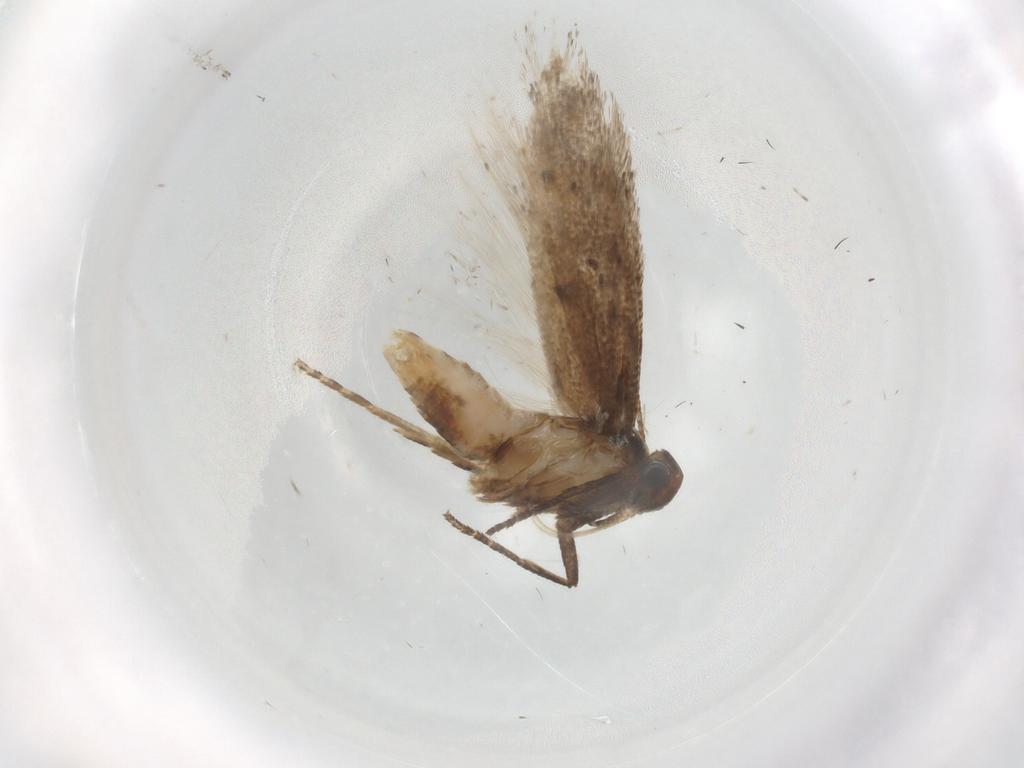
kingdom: Animalia
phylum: Arthropoda
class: Insecta
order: Lepidoptera
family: Gelechiidae
